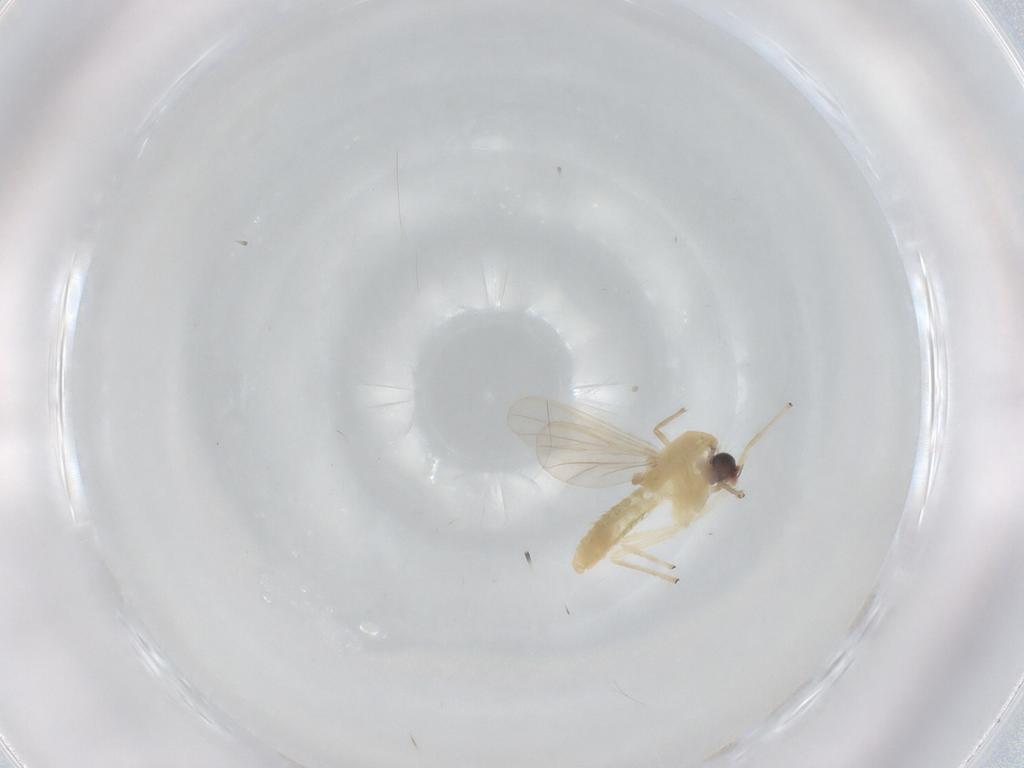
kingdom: Animalia
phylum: Arthropoda
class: Insecta
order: Diptera
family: Chironomidae
